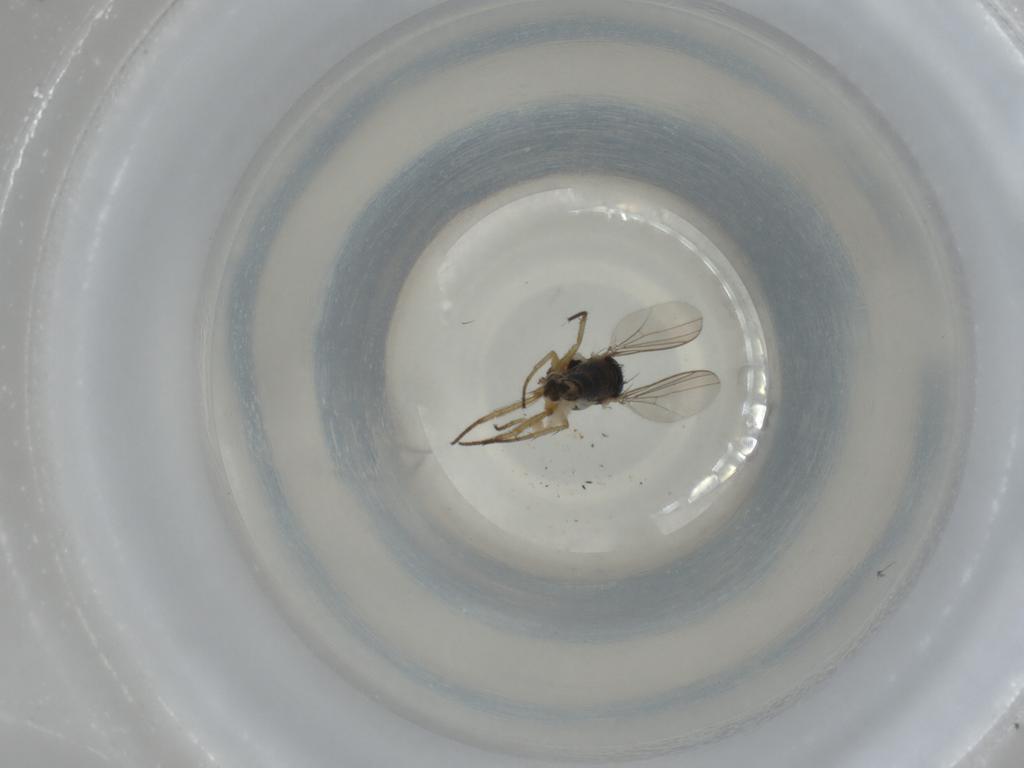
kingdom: Animalia
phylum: Arthropoda
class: Insecta
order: Diptera
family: Dolichopodidae
